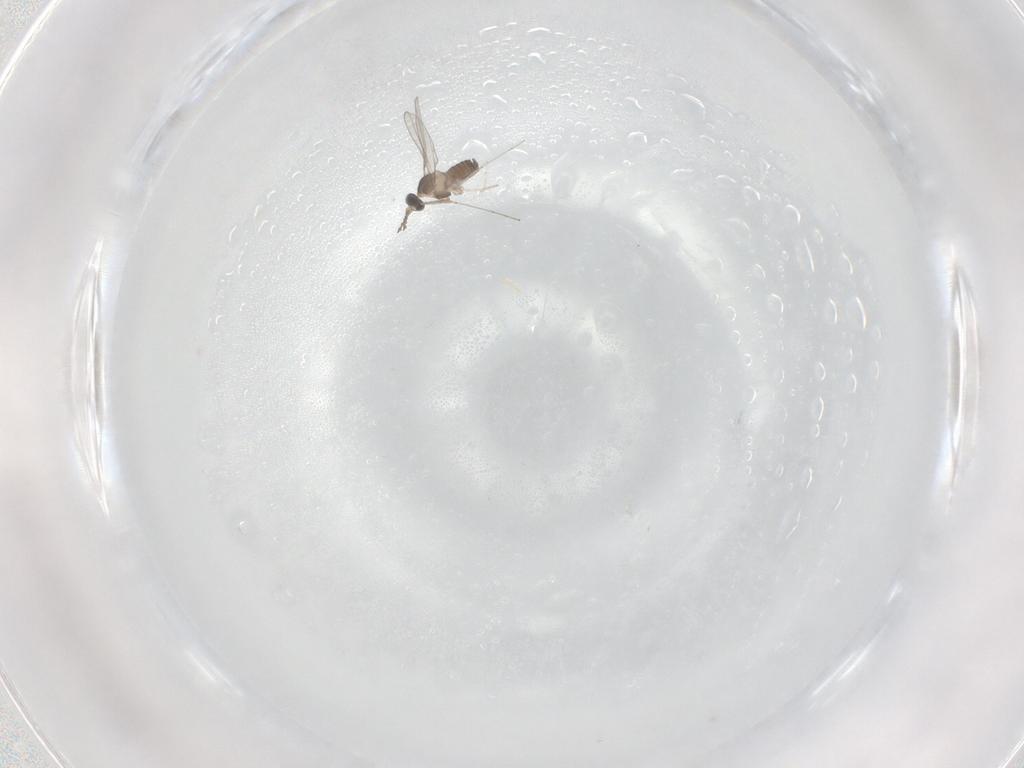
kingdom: Animalia
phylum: Arthropoda
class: Insecta
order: Diptera
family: Cecidomyiidae
